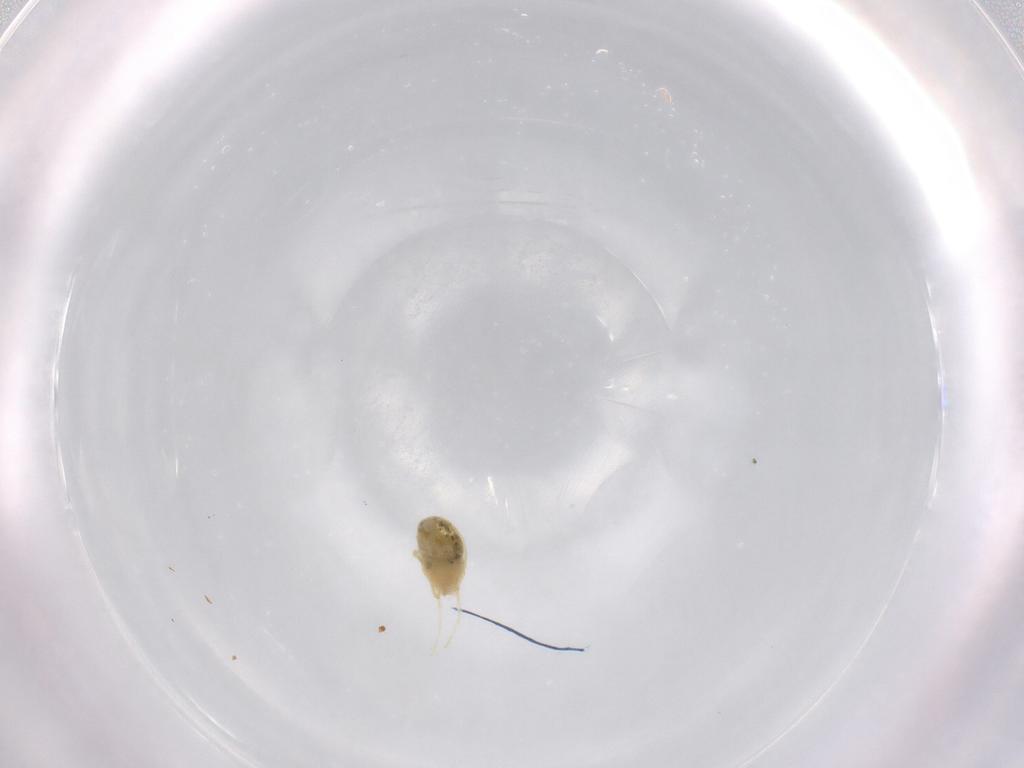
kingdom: Animalia
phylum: Arthropoda
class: Arachnida
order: Trombidiformes
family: Tetranychidae
